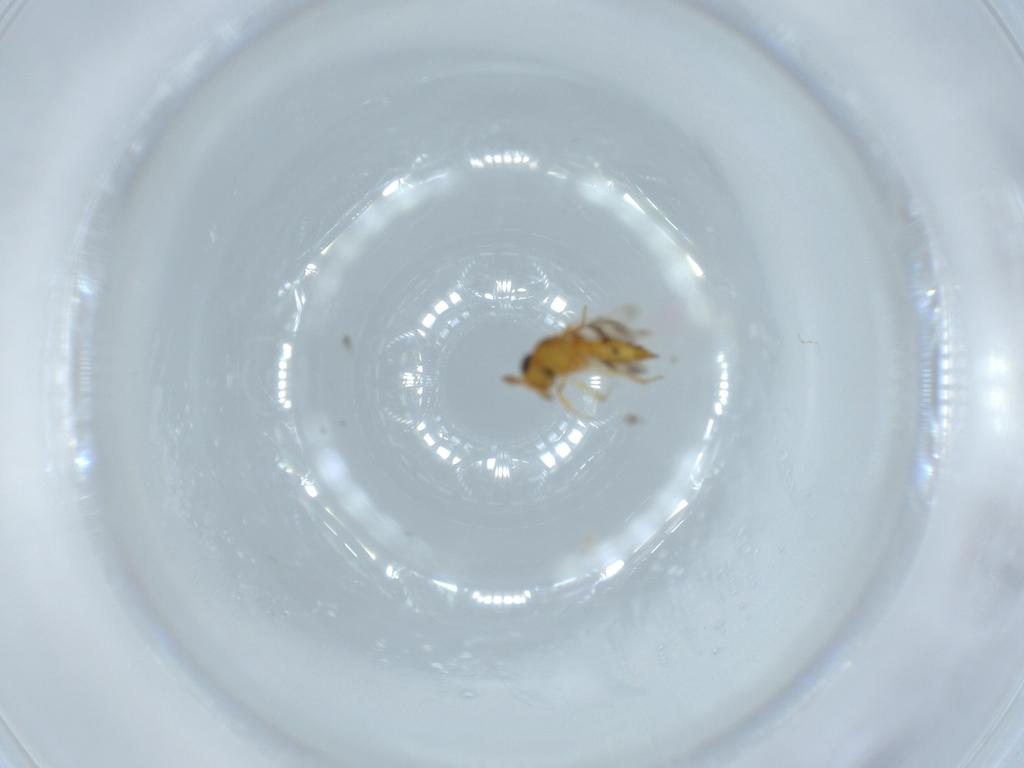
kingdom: Animalia
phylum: Arthropoda
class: Insecta
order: Hymenoptera
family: Scelionidae
